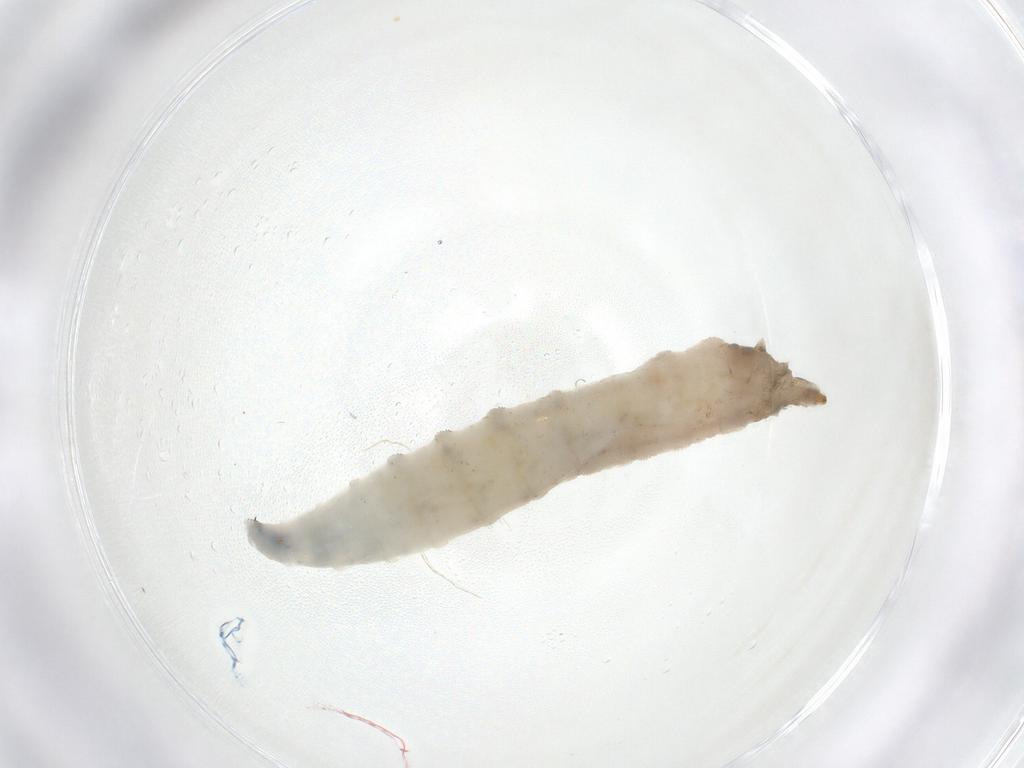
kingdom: Animalia
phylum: Arthropoda
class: Insecta
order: Diptera
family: Drosophilidae
